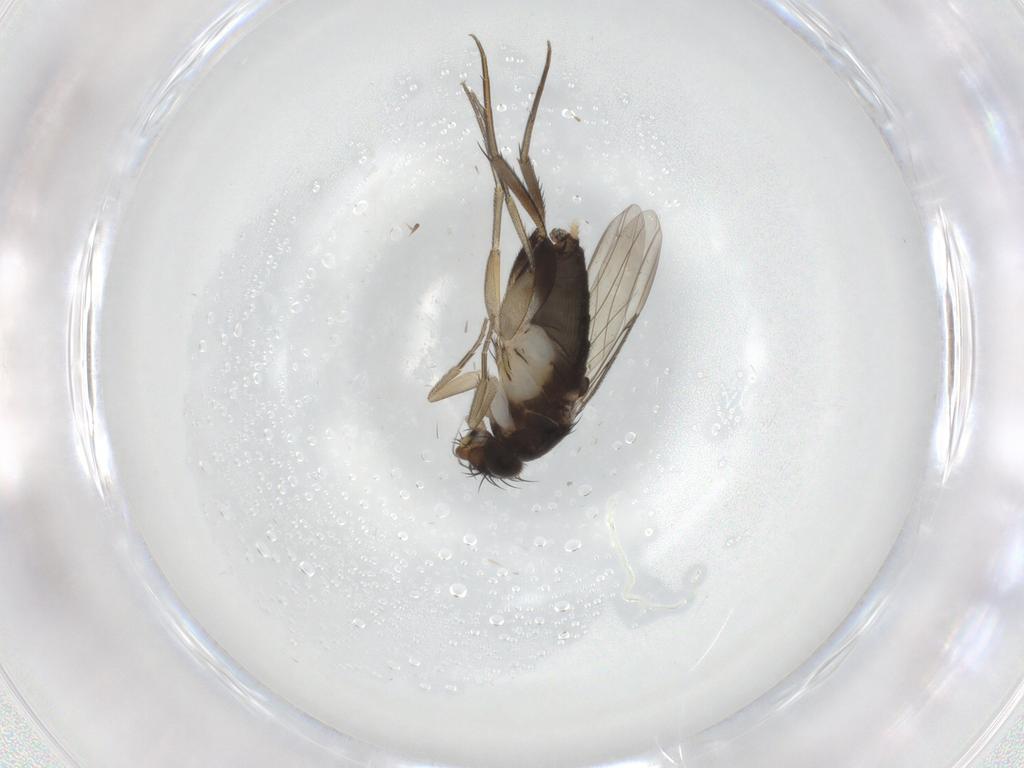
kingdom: Animalia
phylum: Arthropoda
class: Insecta
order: Diptera
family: Phoridae
